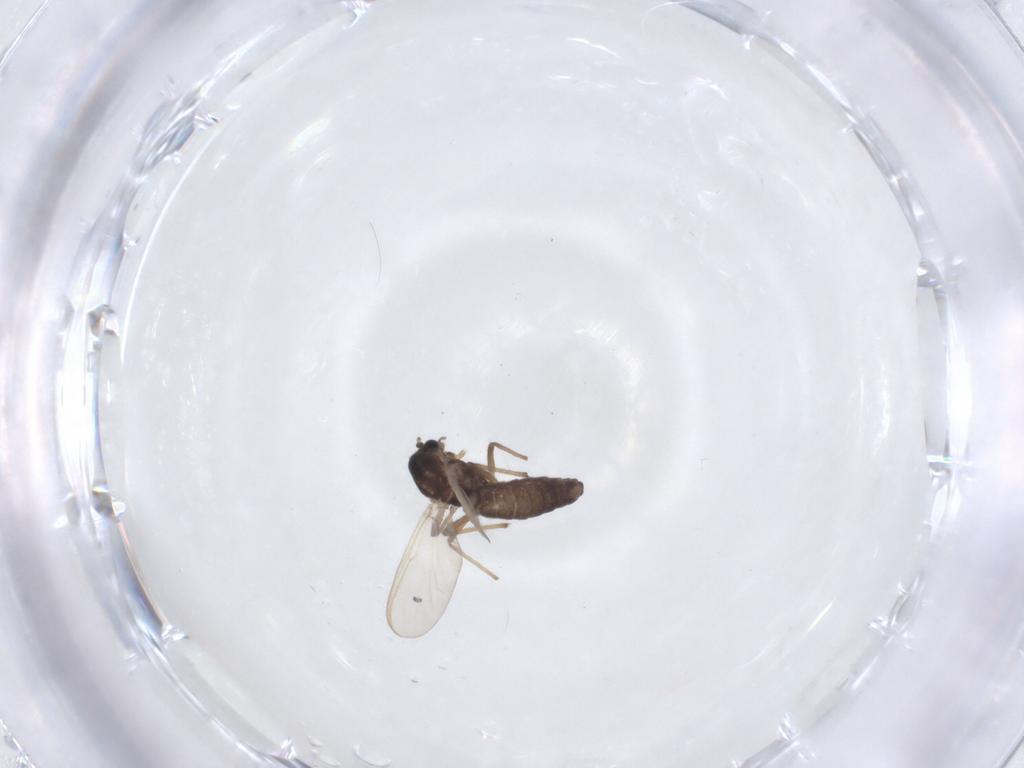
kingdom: Animalia
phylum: Arthropoda
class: Insecta
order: Diptera
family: Chironomidae
